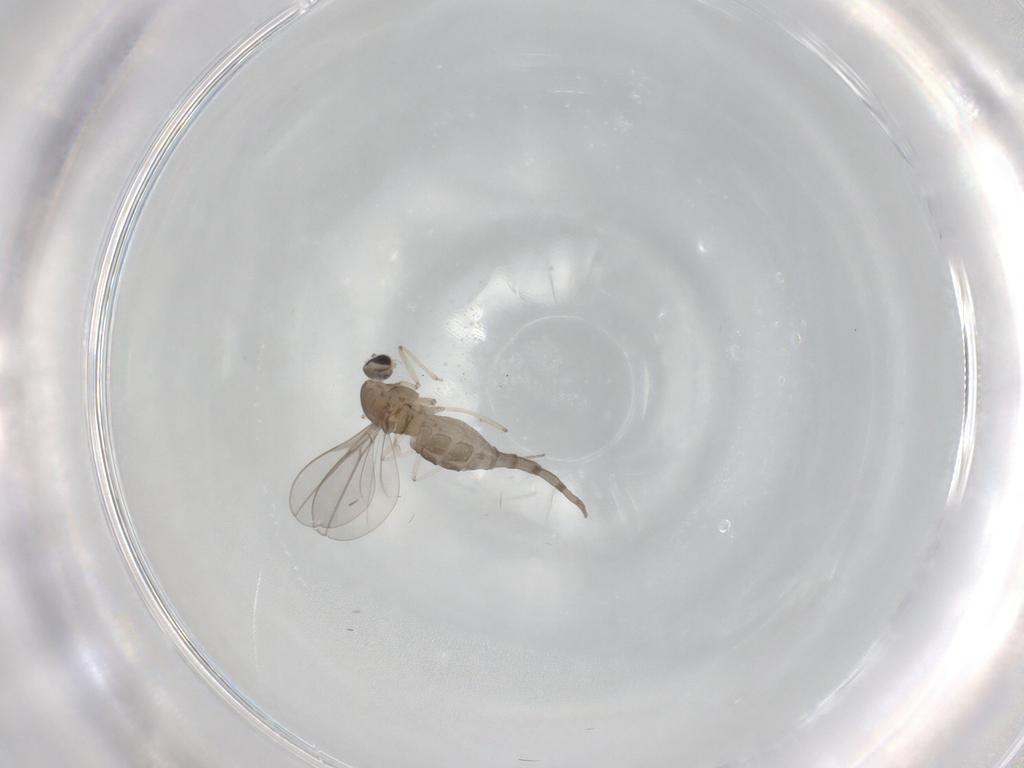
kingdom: Animalia
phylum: Arthropoda
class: Insecta
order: Diptera
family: Cecidomyiidae
